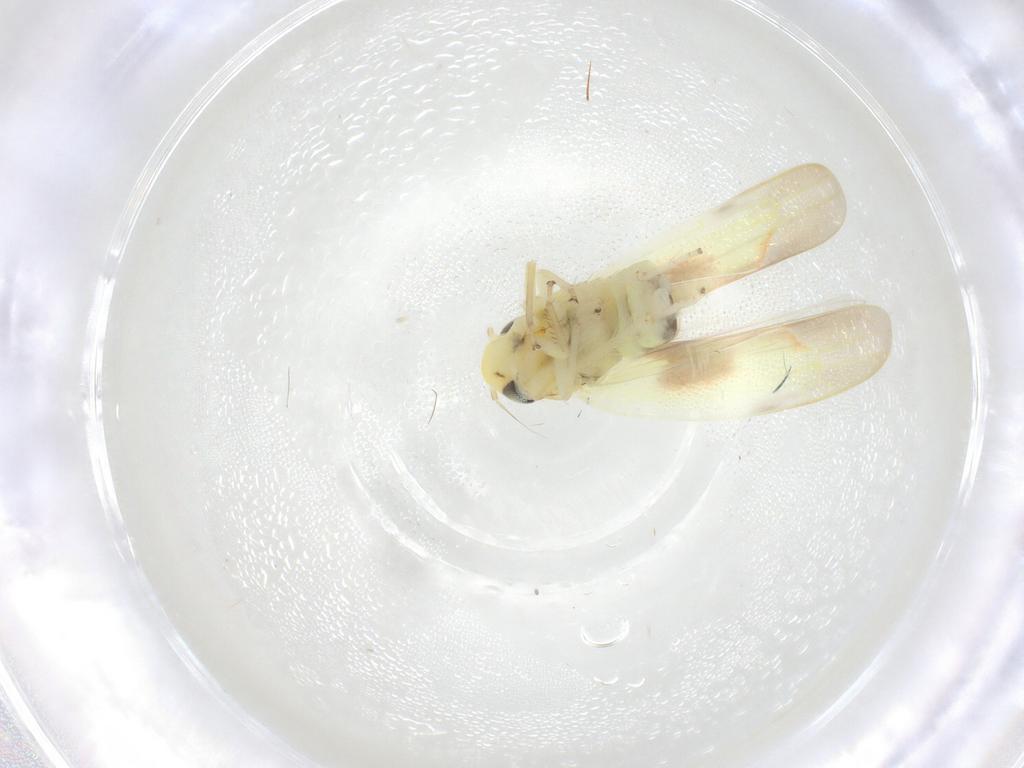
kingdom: Animalia
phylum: Arthropoda
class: Insecta
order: Hemiptera
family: Cicadellidae
